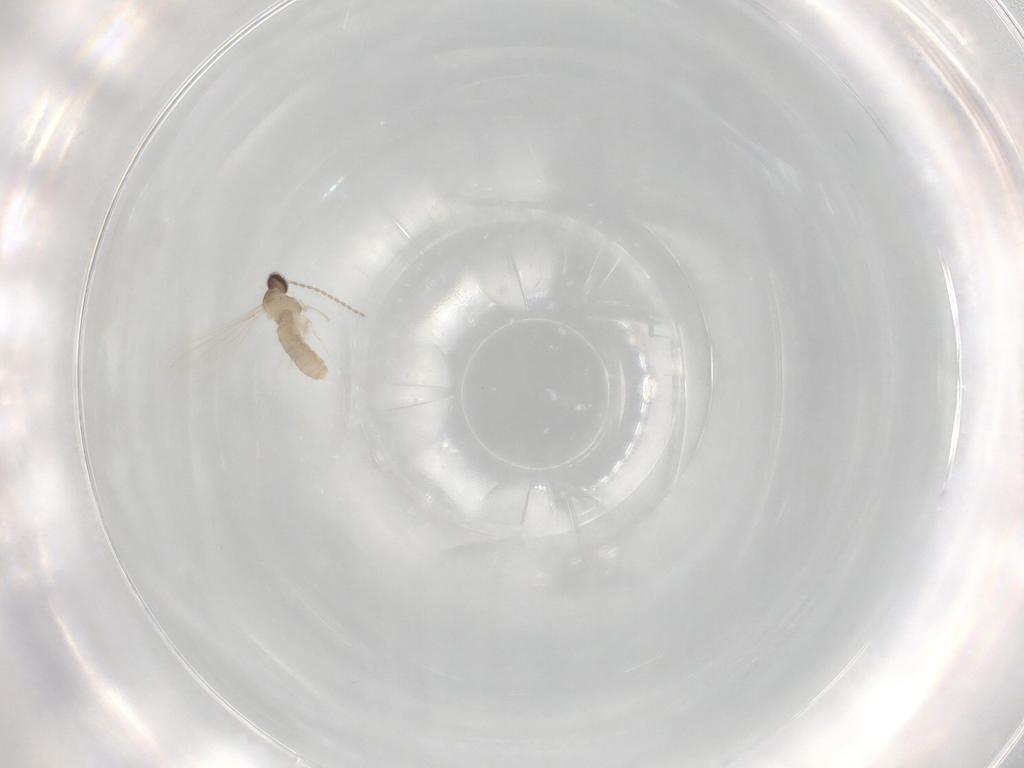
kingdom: Animalia
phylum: Arthropoda
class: Insecta
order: Diptera
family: Cecidomyiidae
